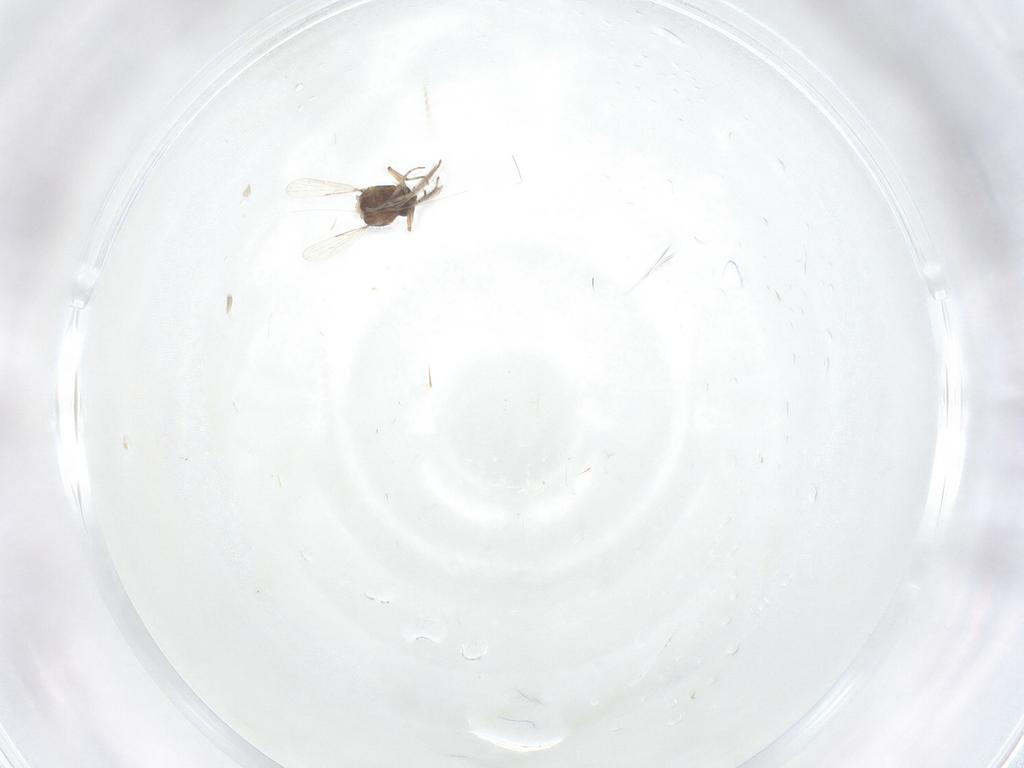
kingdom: Animalia
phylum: Arthropoda
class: Insecta
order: Diptera
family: Ceratopogonidae
